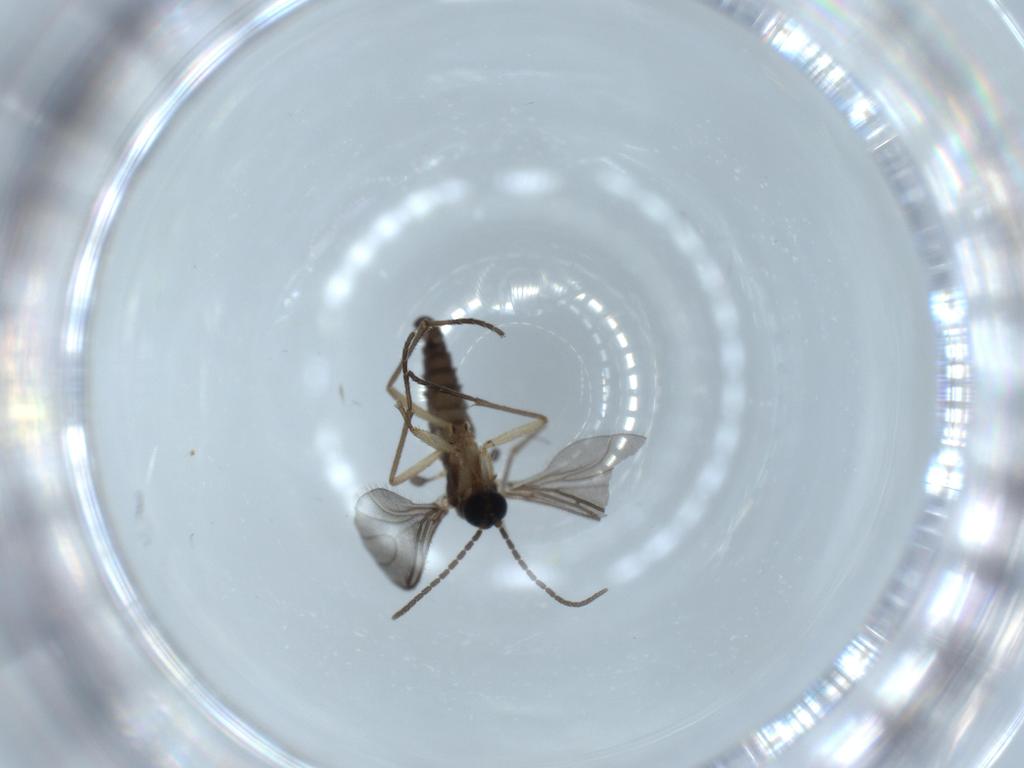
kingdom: Animalia
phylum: Arthropoda
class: Insecta
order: Diptera
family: Sciaridae
